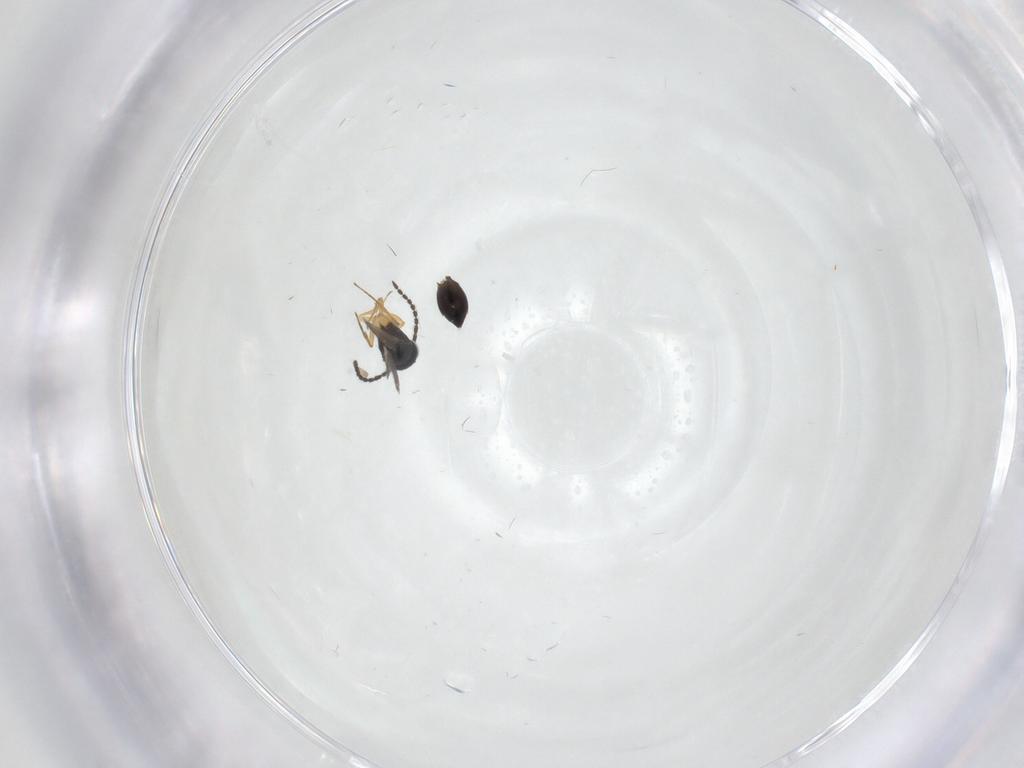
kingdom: Animalia
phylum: Arthropoda
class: Insecta
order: Hymenoptera
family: Scelionidae
